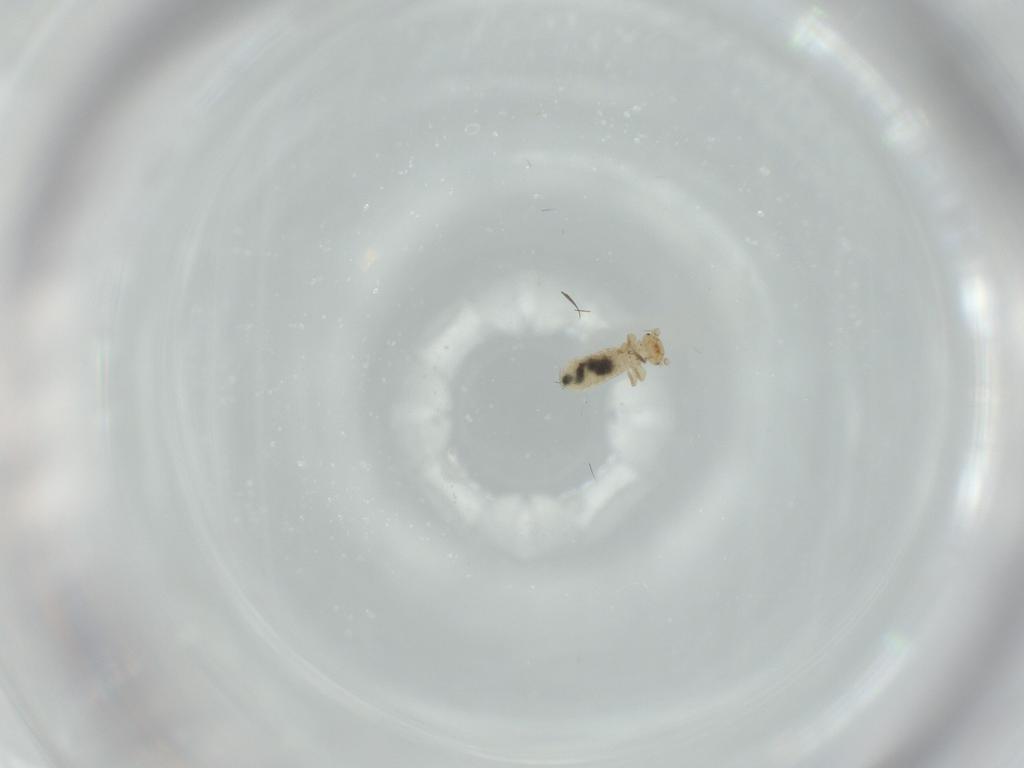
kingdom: Animalia
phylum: Arthropoda
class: Insecta
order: Psocodea
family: Liposcelididae
